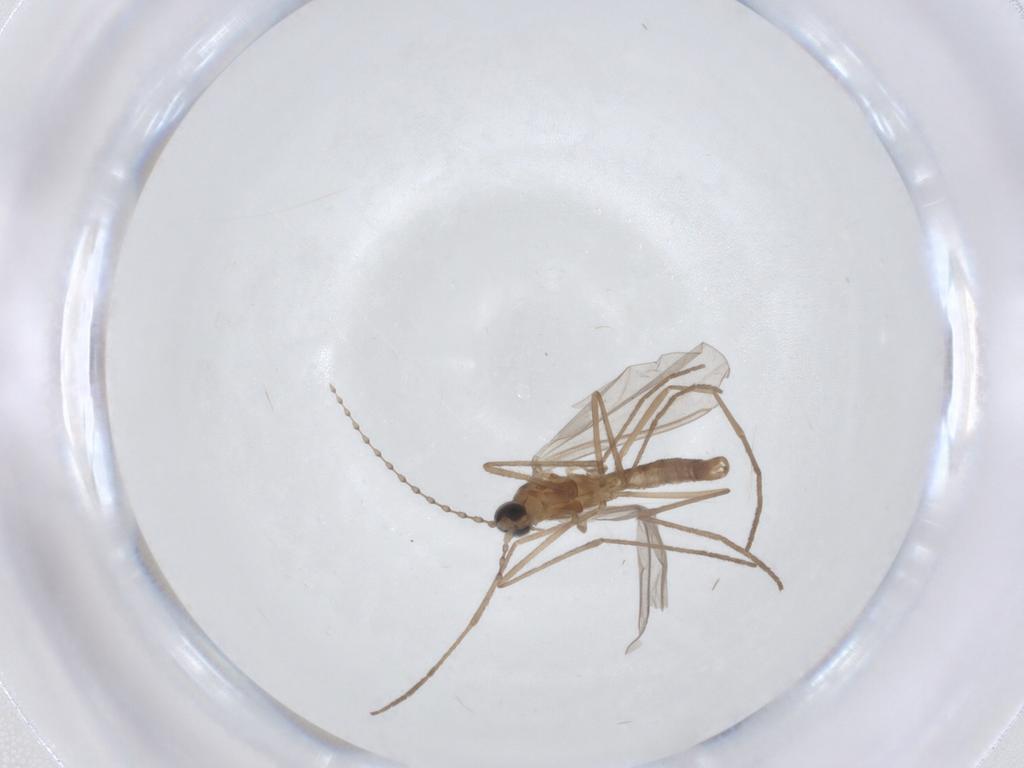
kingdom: Animalia
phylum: Arthropoda
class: Insecta
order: Diptera
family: Cecidomyiidae
